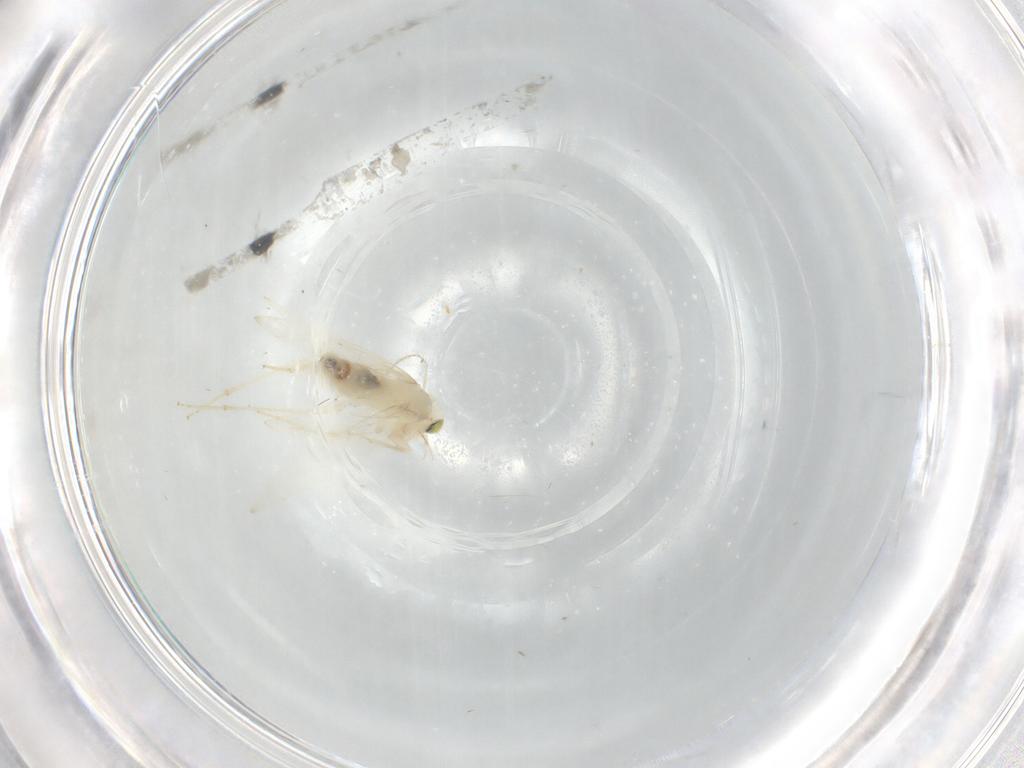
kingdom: Animalia
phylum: Arthropoda
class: Insecta
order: Psocodea
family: Lepidopsocidae
